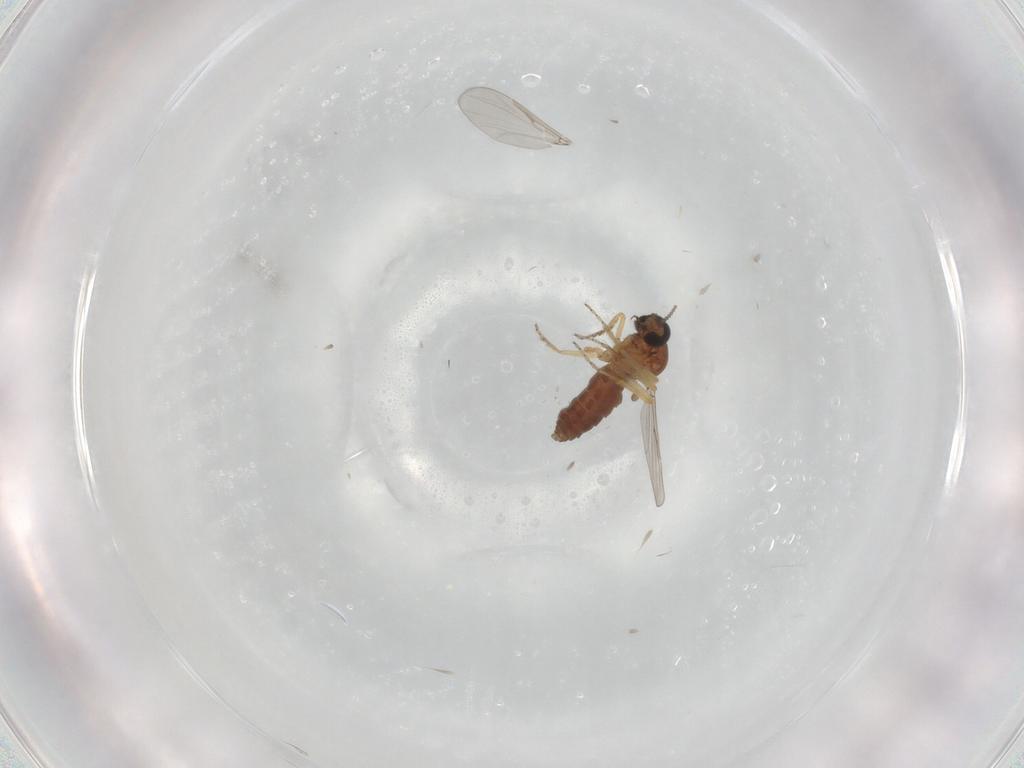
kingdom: Animalia
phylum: Arthropoda
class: Insecta
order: Diptera
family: Ceratopogonidae
